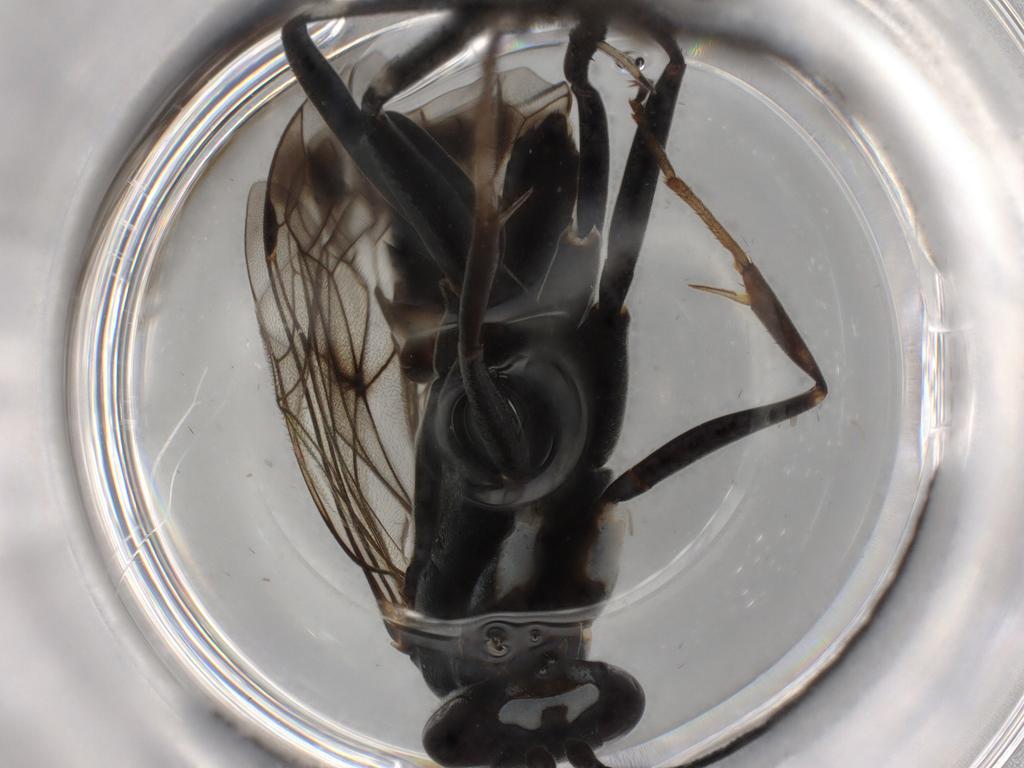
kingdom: Animalia
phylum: Arthropoda
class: Insecta
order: Hymenoptera
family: Pompilidae
